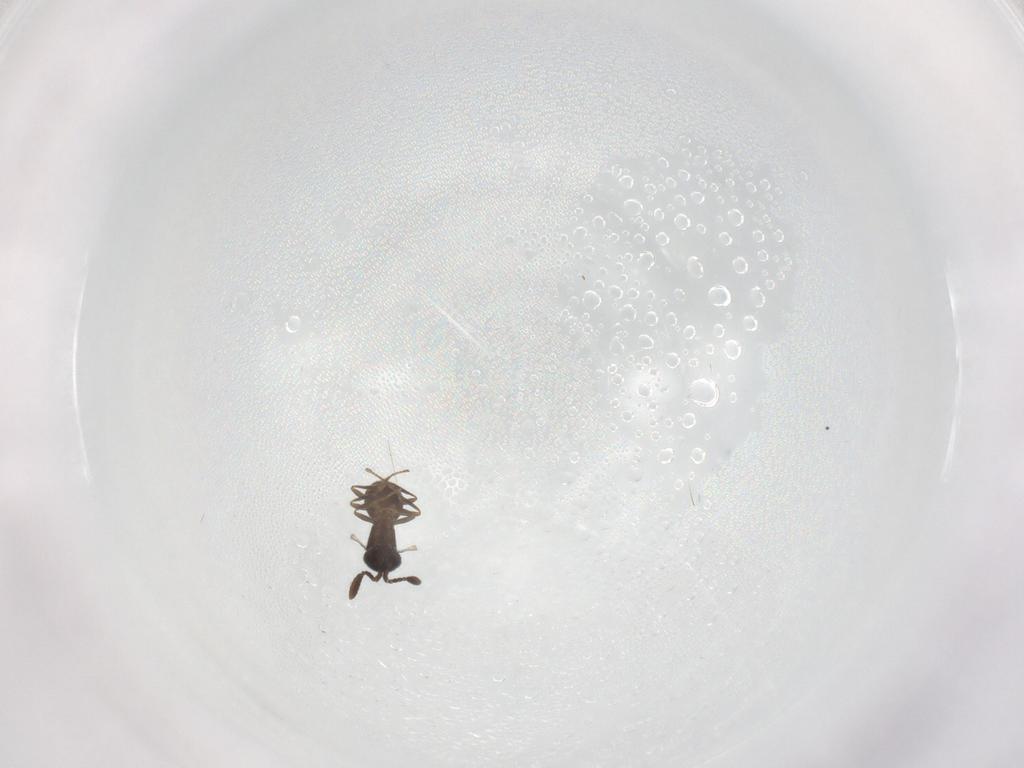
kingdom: Animalia
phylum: Arthropoda
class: Insecta
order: Hymenoptera
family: Scelionidae
